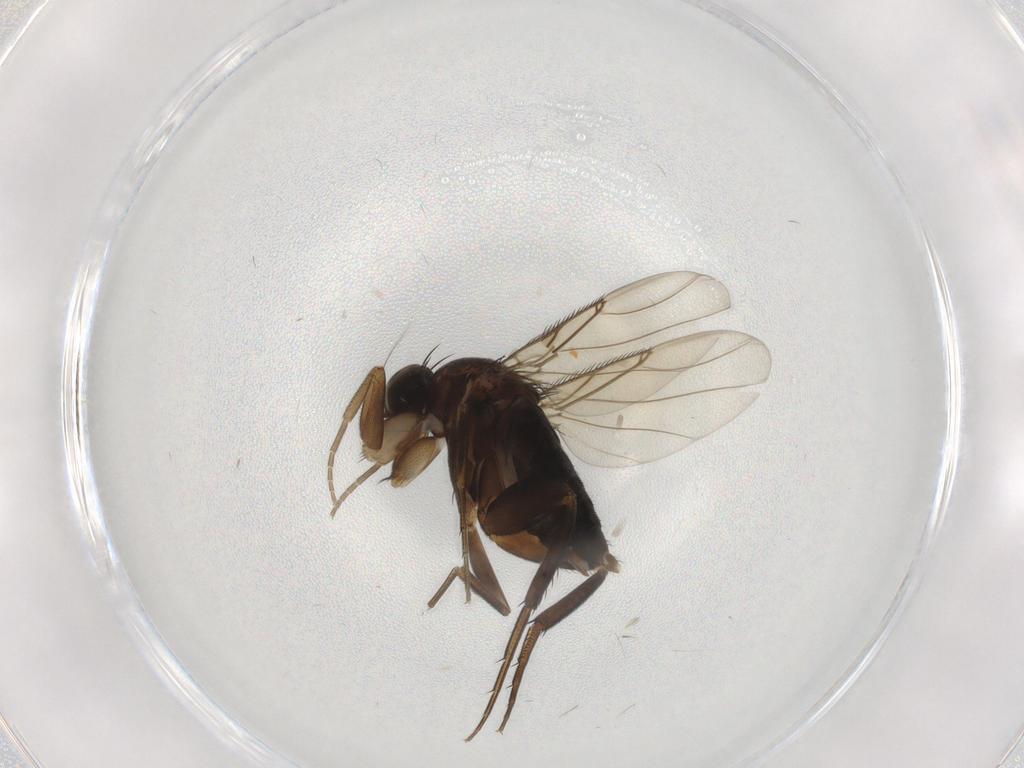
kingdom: Animalia
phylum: Arthropoda
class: Insecta
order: Diptera
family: Phoridae
